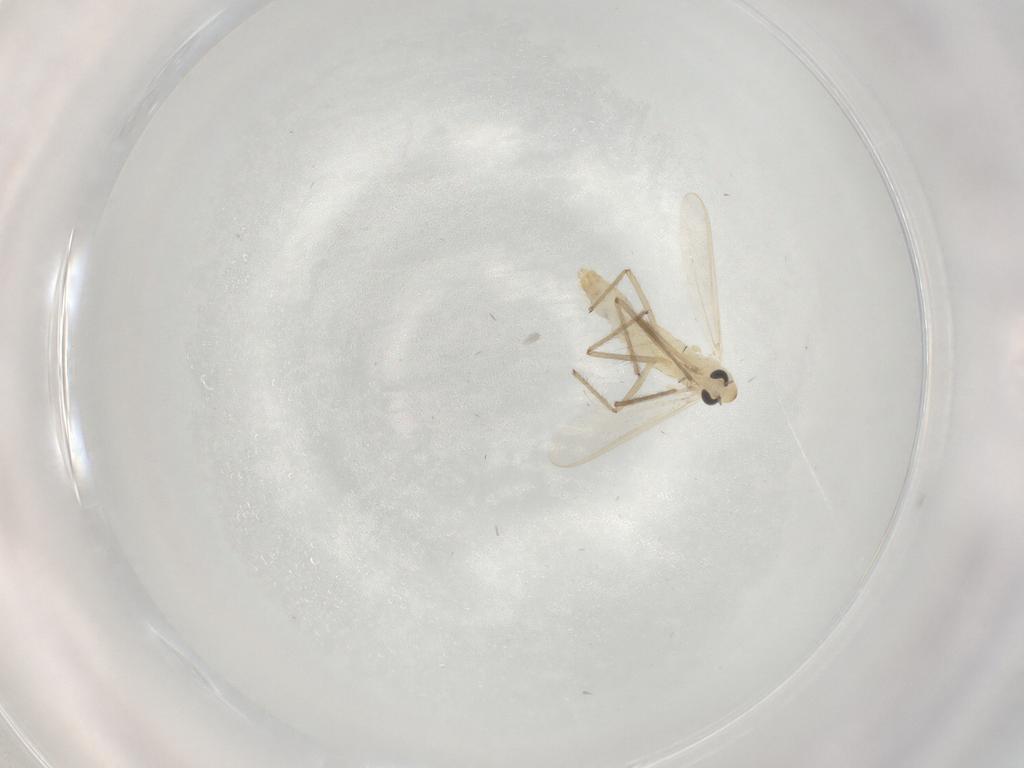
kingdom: Animalia
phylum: Arthropoda
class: Insecta
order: Diptera
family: Chironomidae
